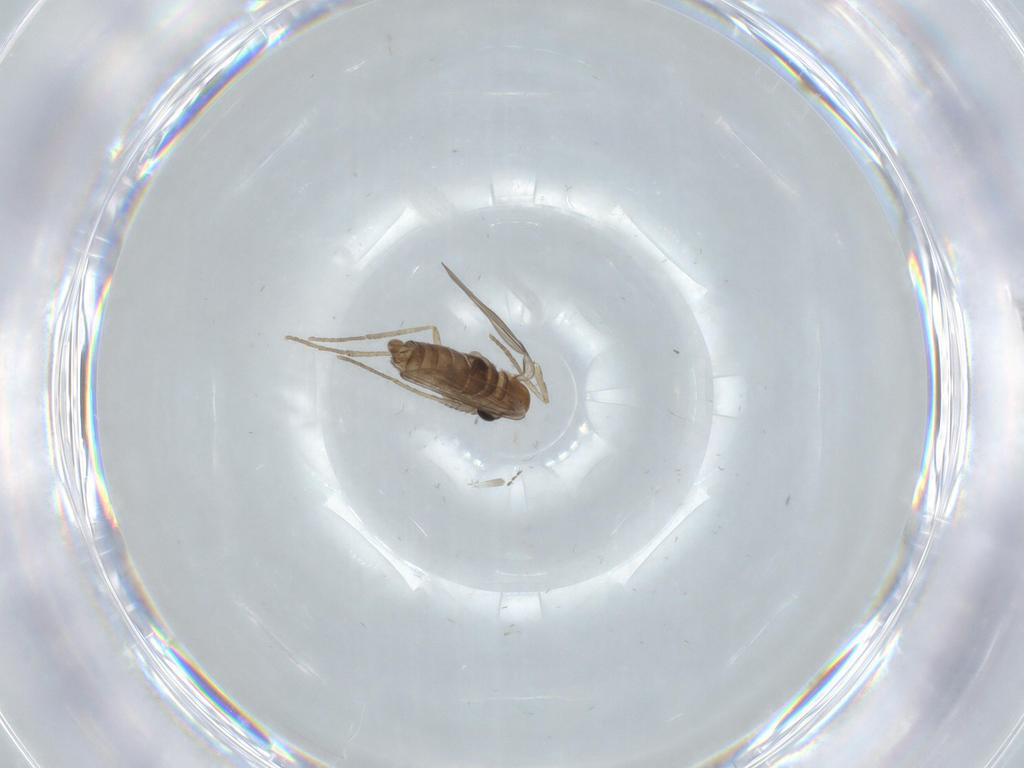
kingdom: Animalia
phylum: Arthropoda
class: Insecta
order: Diptera
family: Psychodidae
